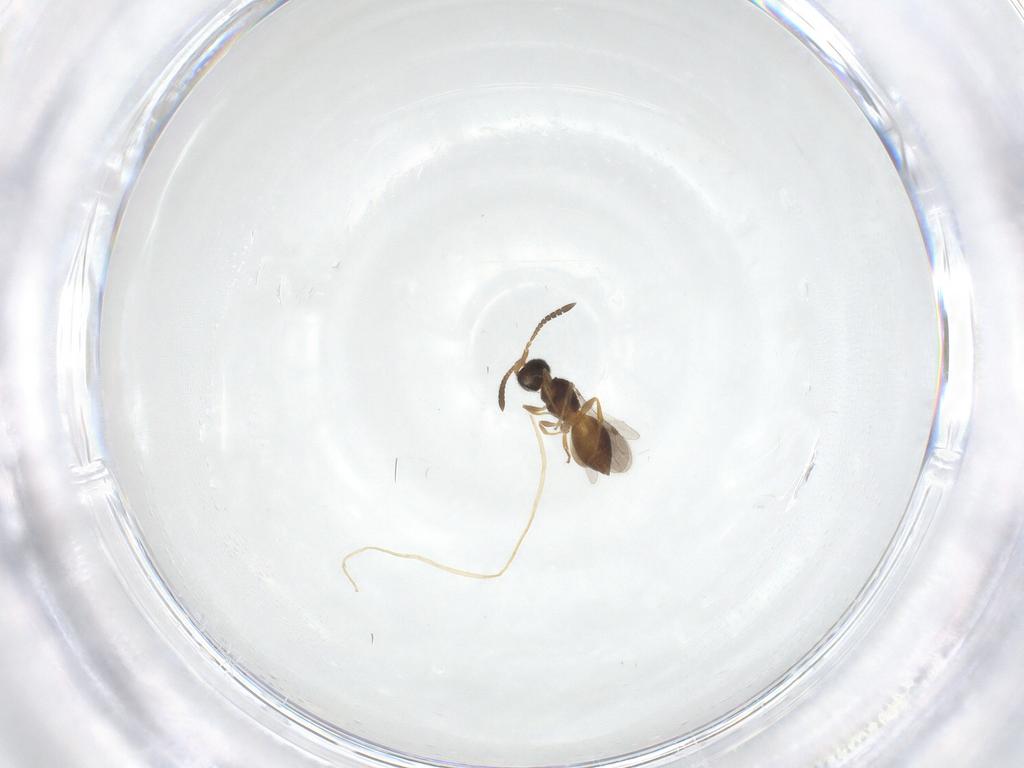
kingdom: Animalia
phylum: Arthropoda
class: Insecta
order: Hymenoptera
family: Megaspilidae
